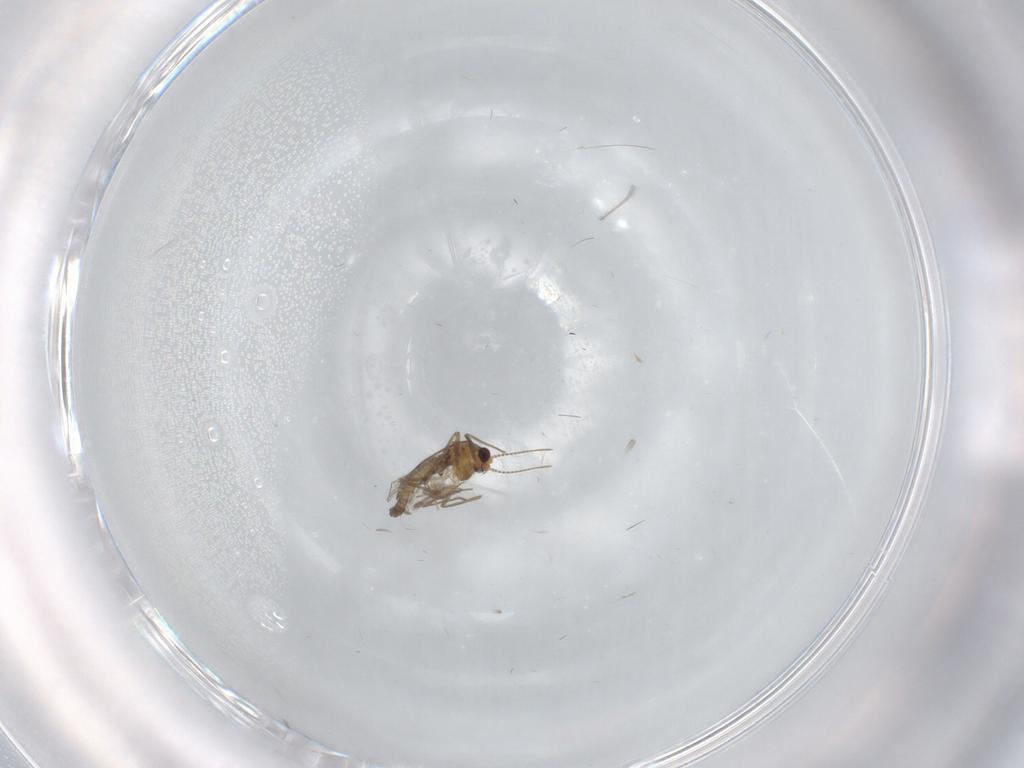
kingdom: Animalia
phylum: Arthropoda
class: Insecta
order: Diptera
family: Chironomidae
